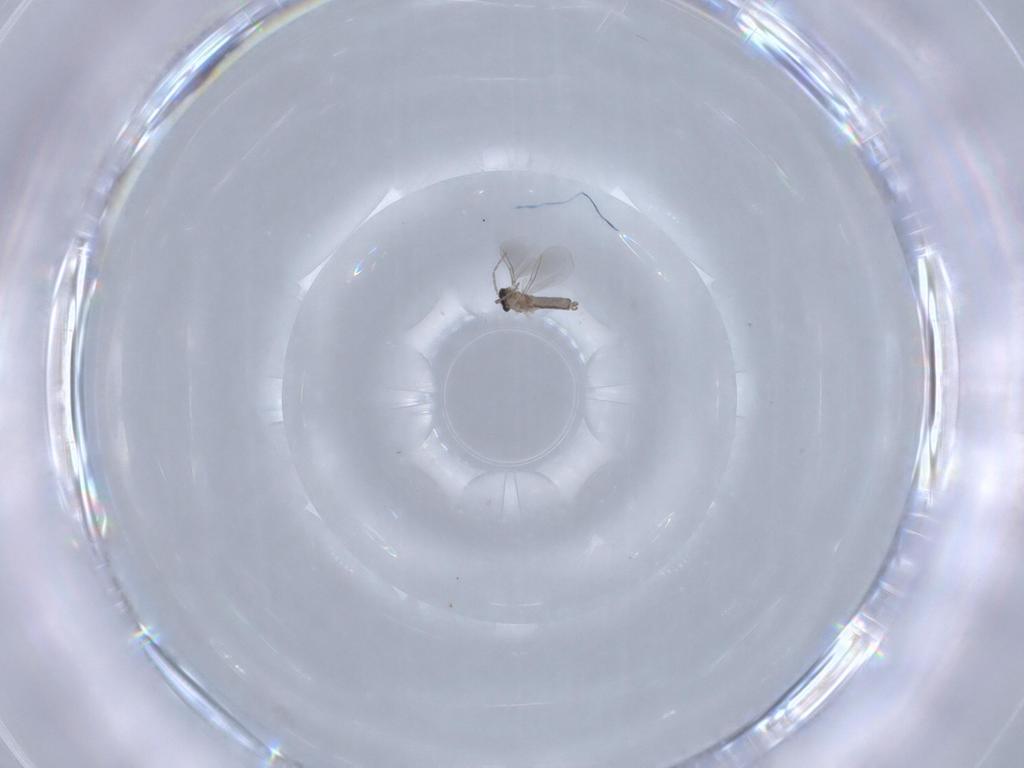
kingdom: Animalia
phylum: Arthropoda
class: Insecta
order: Diptera
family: Cecidomyiidae
